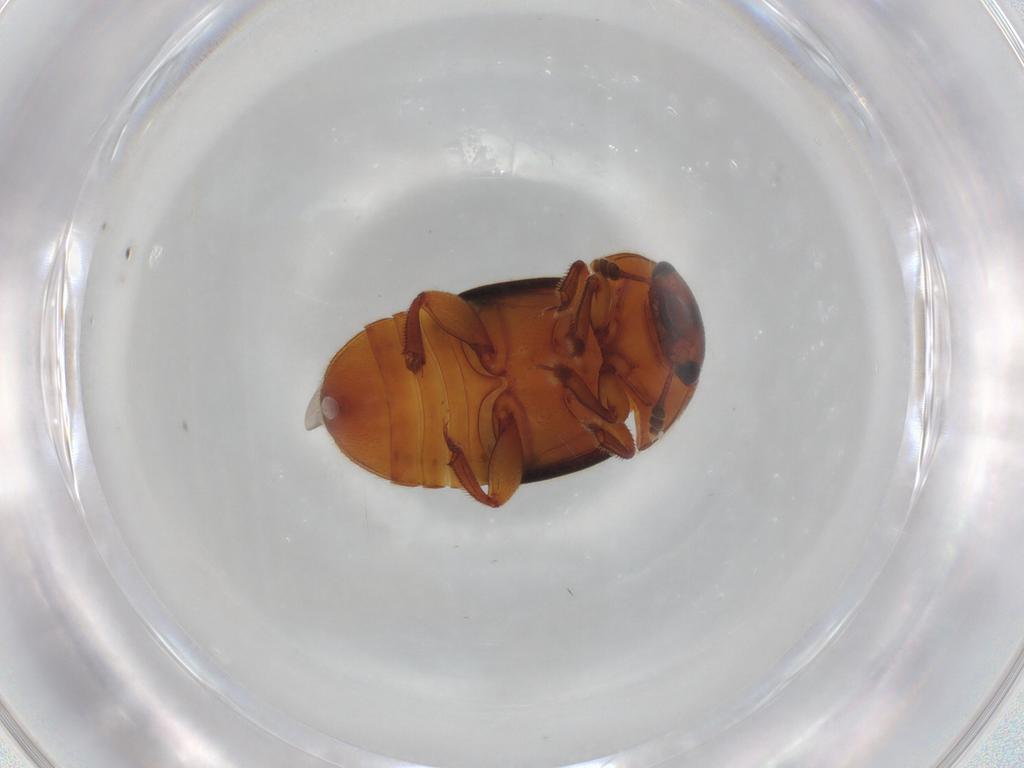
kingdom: Animalia
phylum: Arthropoda
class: Insecta
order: Coleoptera
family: Nitidulidae
